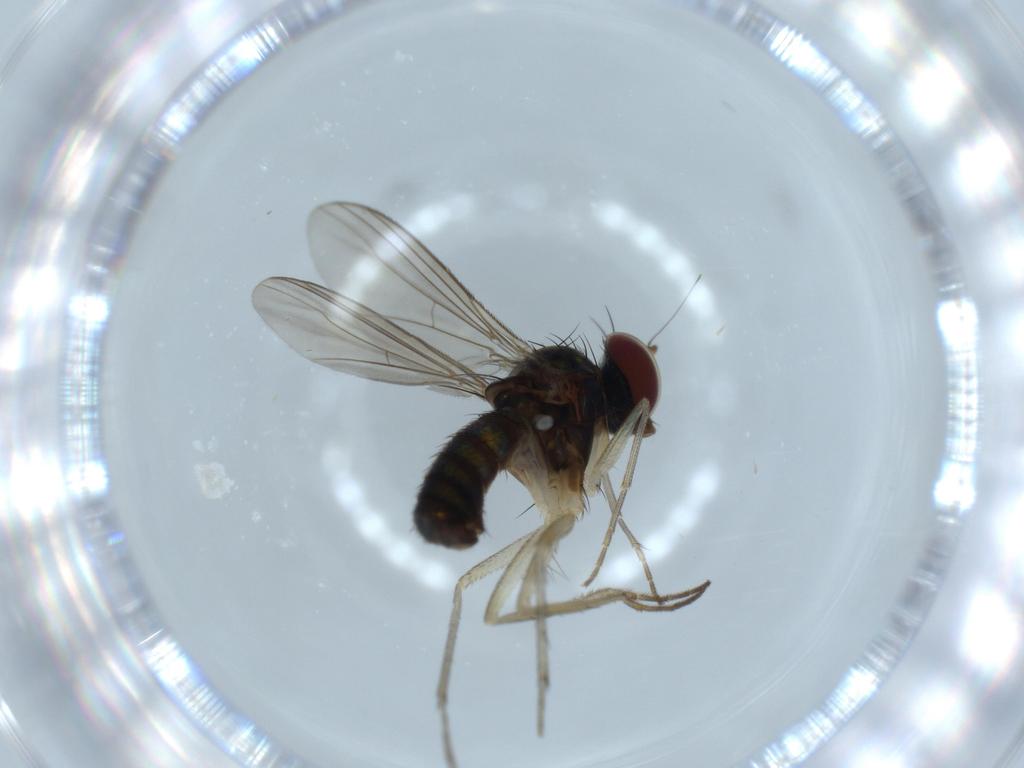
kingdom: Animalia
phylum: Arthropoda
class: Insecta
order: Diptera
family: Dolichopodidae
